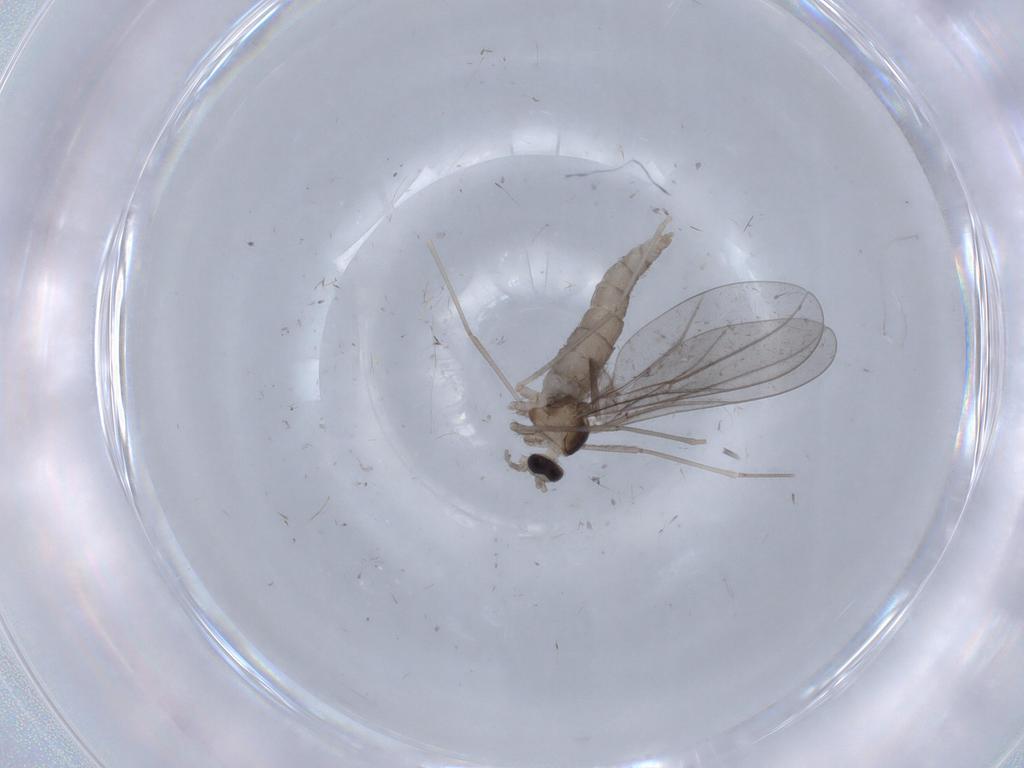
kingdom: Animalia
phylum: Arthropoda
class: Insecta
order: Diptera
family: Cecidomyiidae
